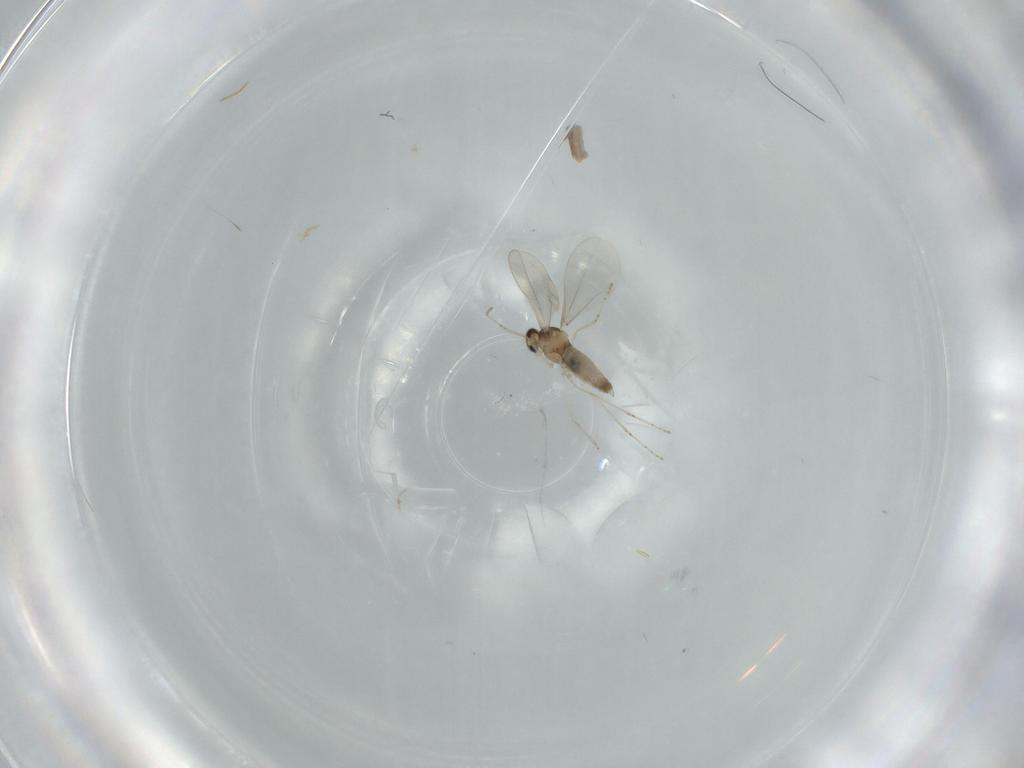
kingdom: Animalia
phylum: Arthropoda
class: Insecta
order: Diptera
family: Cecidomyiidae
